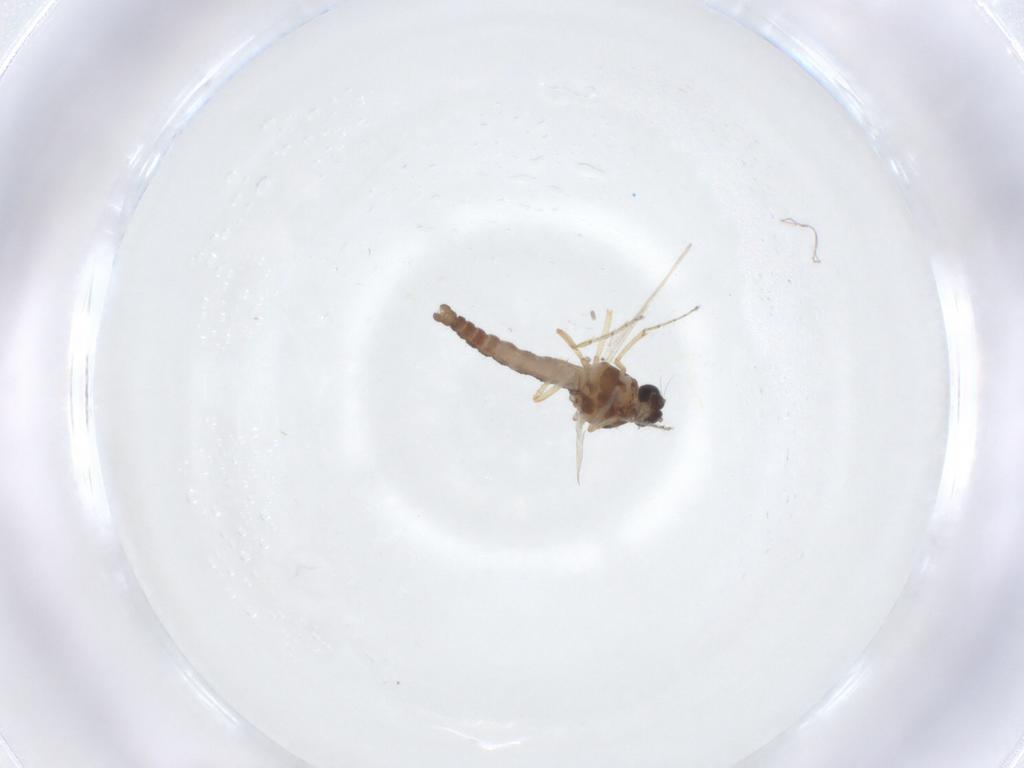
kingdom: Animalia
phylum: Arthropoda
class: Insecta
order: Diptera
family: Ceratopogonidae
